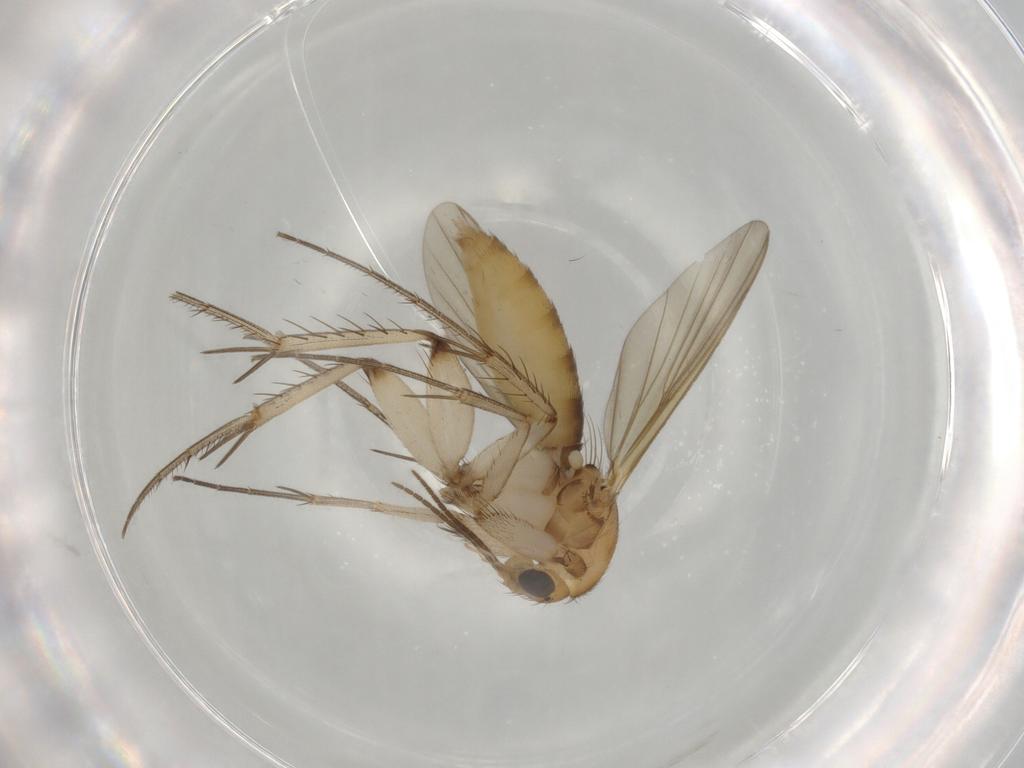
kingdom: Animalia
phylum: Arthropoda
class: Insecta
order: Diptera
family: Mycetophilidae
